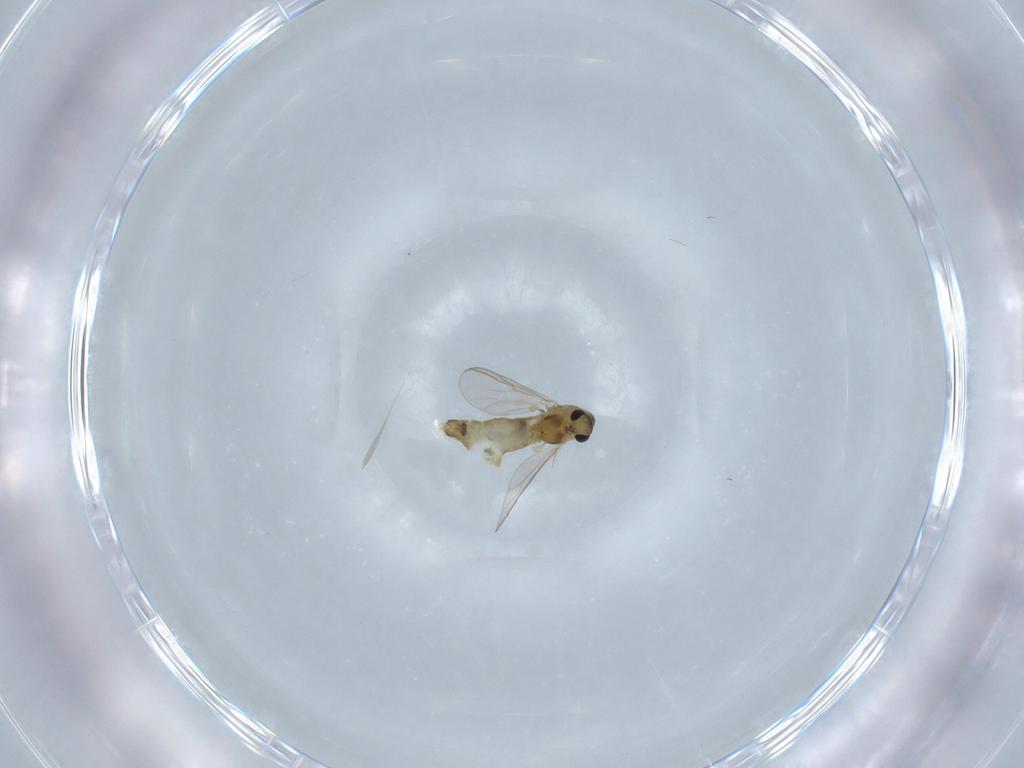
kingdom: Animalia
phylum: Arthropoda
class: Insecta
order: Diptera
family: Chironomidae
